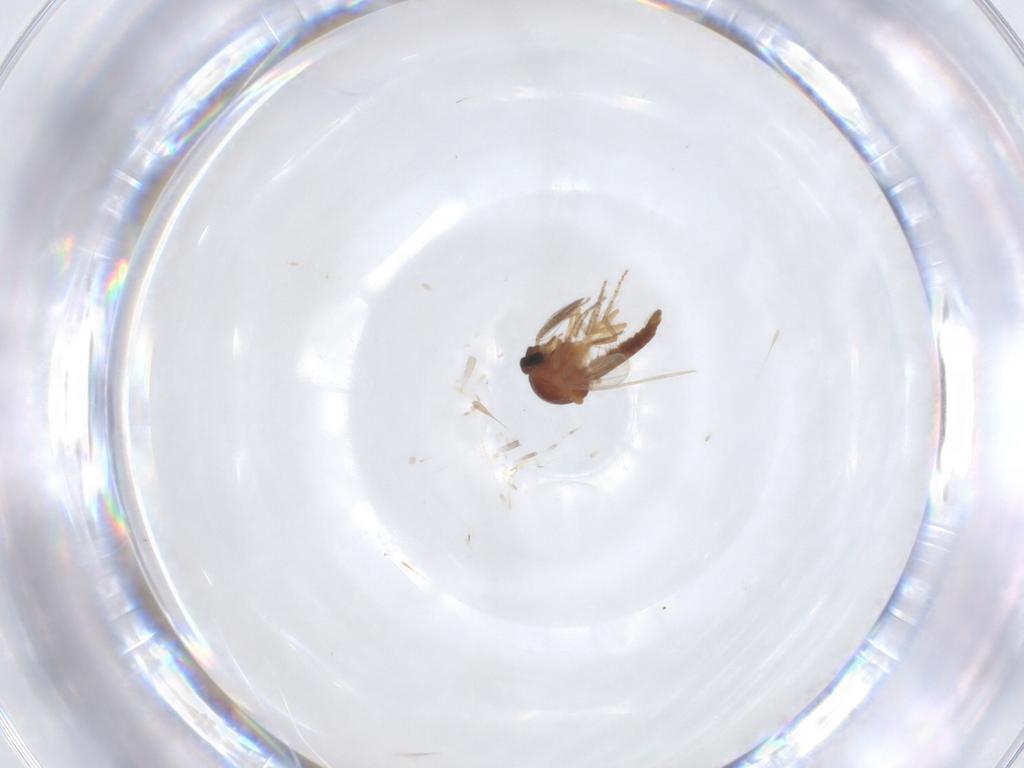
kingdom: Animalia
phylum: Arthropoda
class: Insecta
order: Diptera
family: Ceratopogonidae
